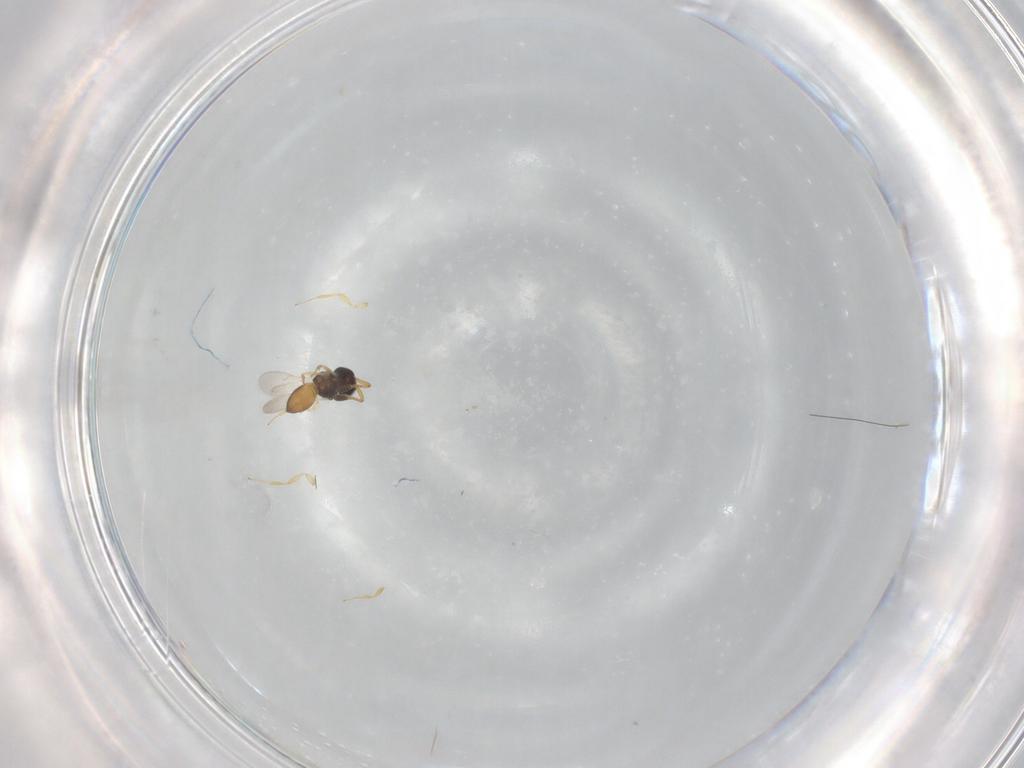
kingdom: Animalia
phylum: Arthropoda
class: Insecta
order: Hymenoptera
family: Scelionidae
